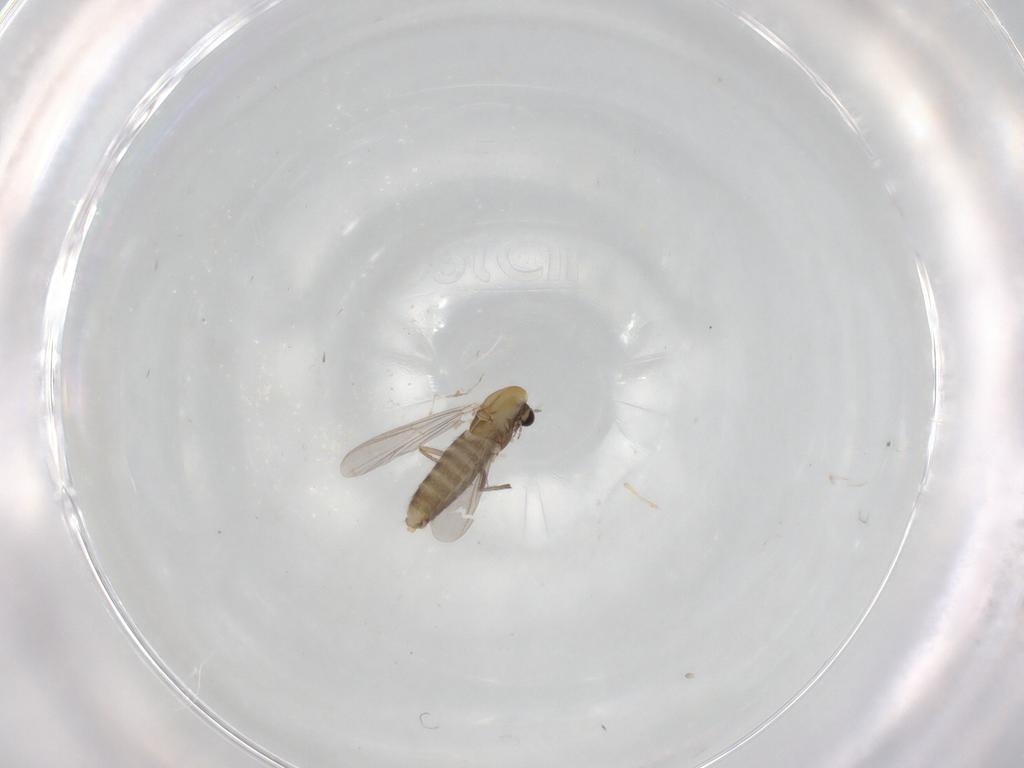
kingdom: Animalia
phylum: Arthropoda
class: Insecta
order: Diptera
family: Chironomidae
